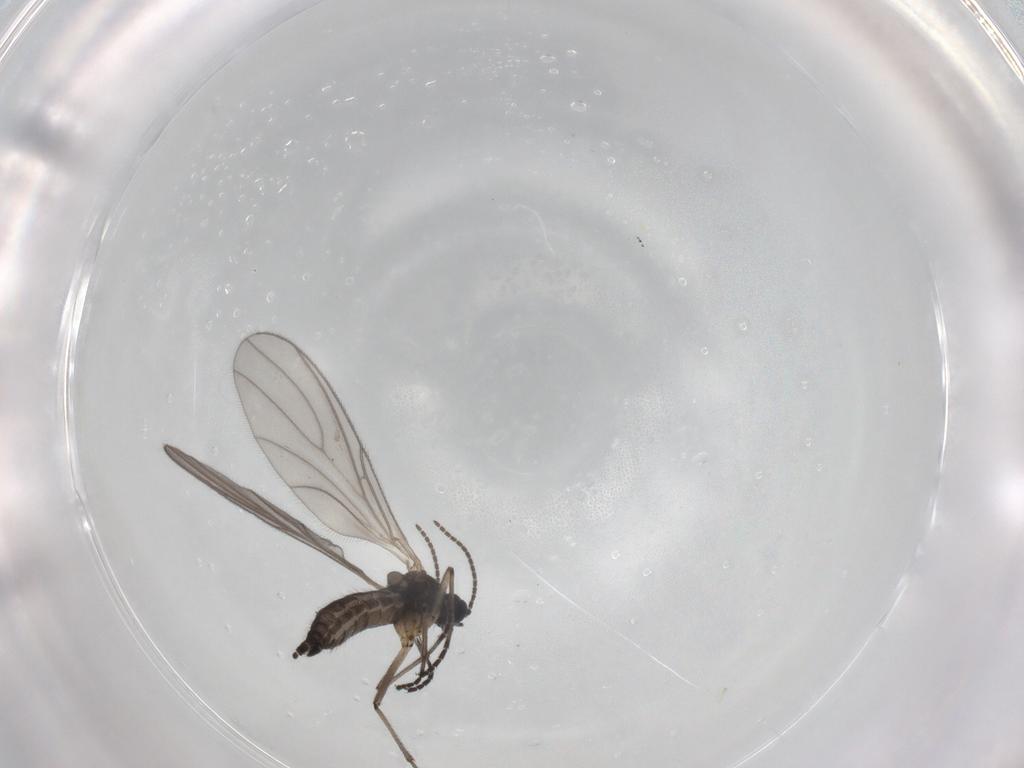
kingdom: Animalia
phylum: Arthropoda
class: Insecta
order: Diptera
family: Sciaridae
